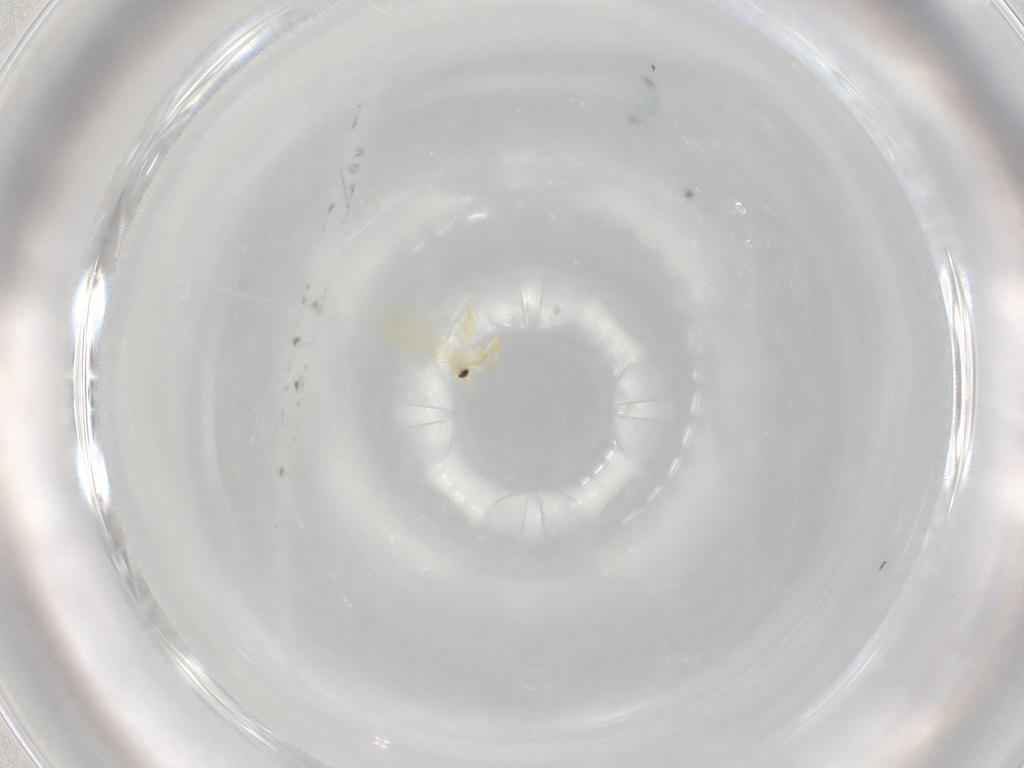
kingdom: Animalia
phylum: Arthropoda
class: Insecta
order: Hemiptera
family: Aleyrodidae
